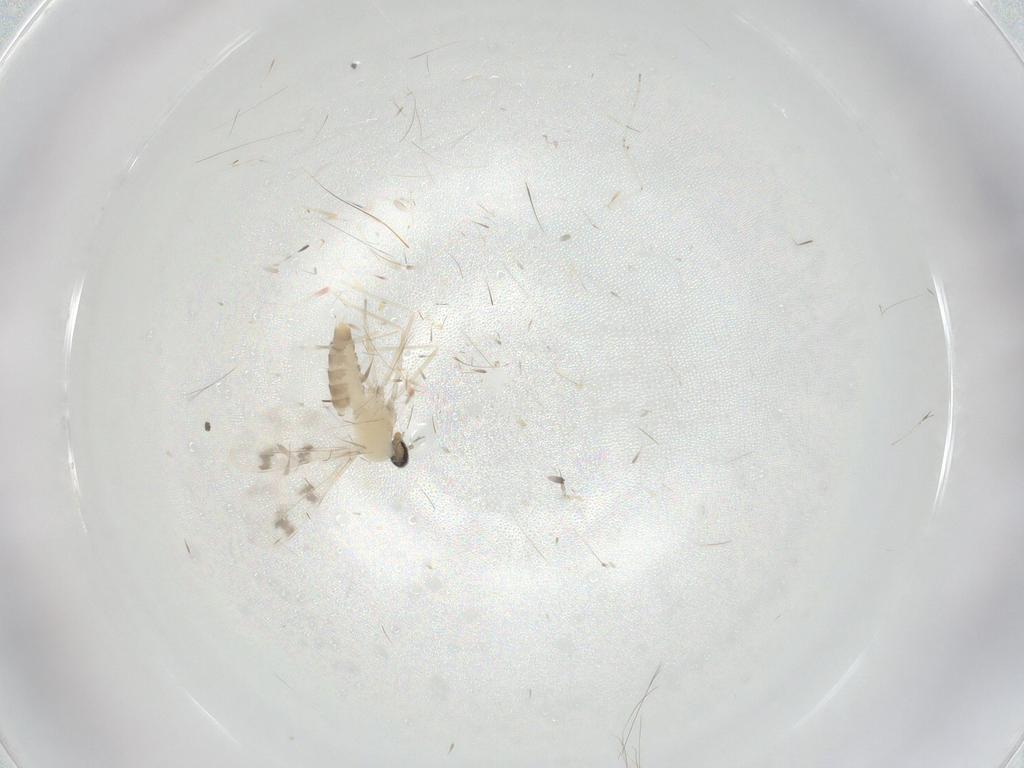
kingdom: Animalia
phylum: Arthropoda
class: Insecta
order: Diptera
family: Cecidomyiidae
